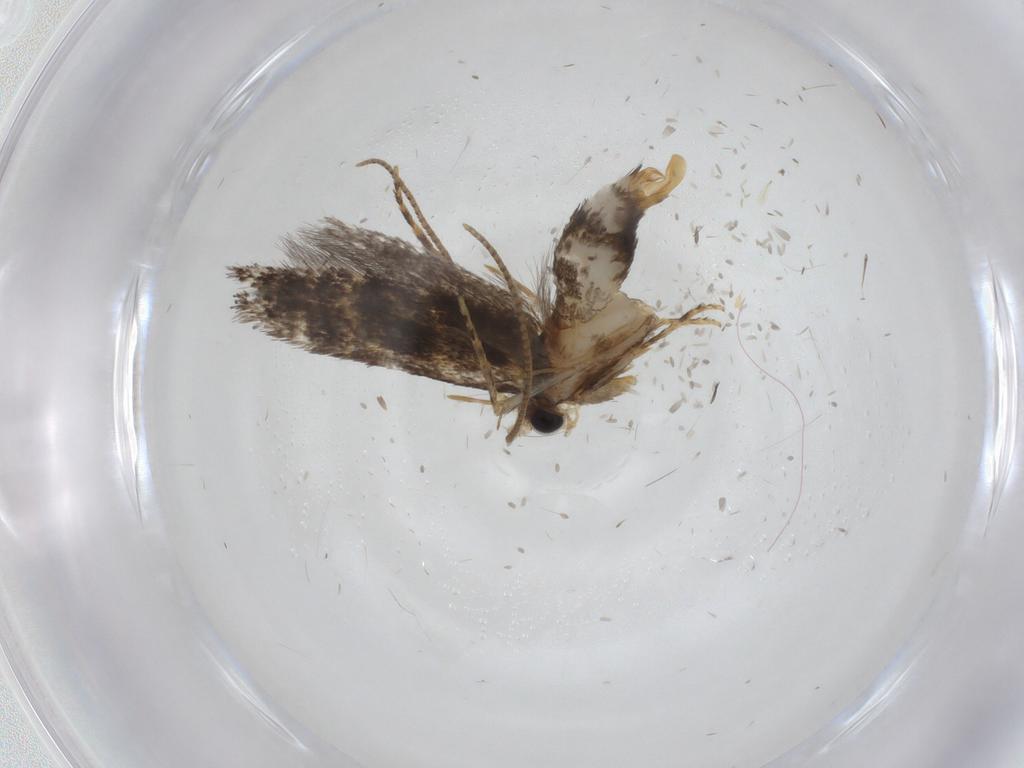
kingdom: Animalia
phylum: Arthropoda
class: Insecta
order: Lepidoptera
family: Tineidae
